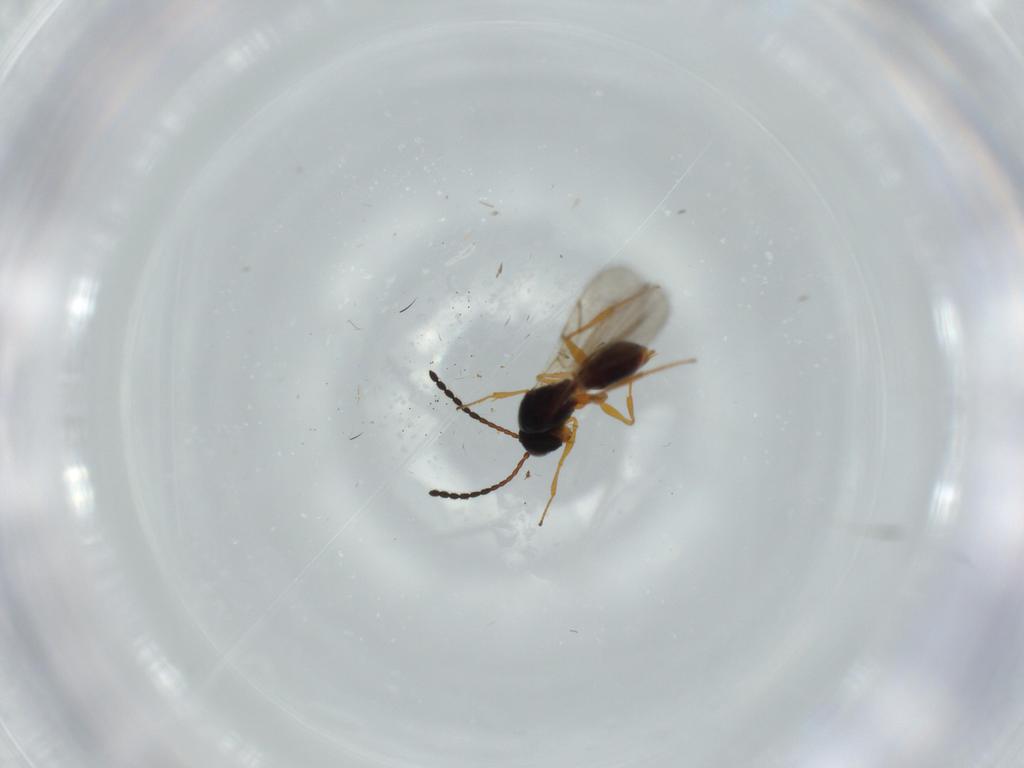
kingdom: Animalia
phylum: Arthropoda
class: Insecta
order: Hymenoptera
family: Figitidae
